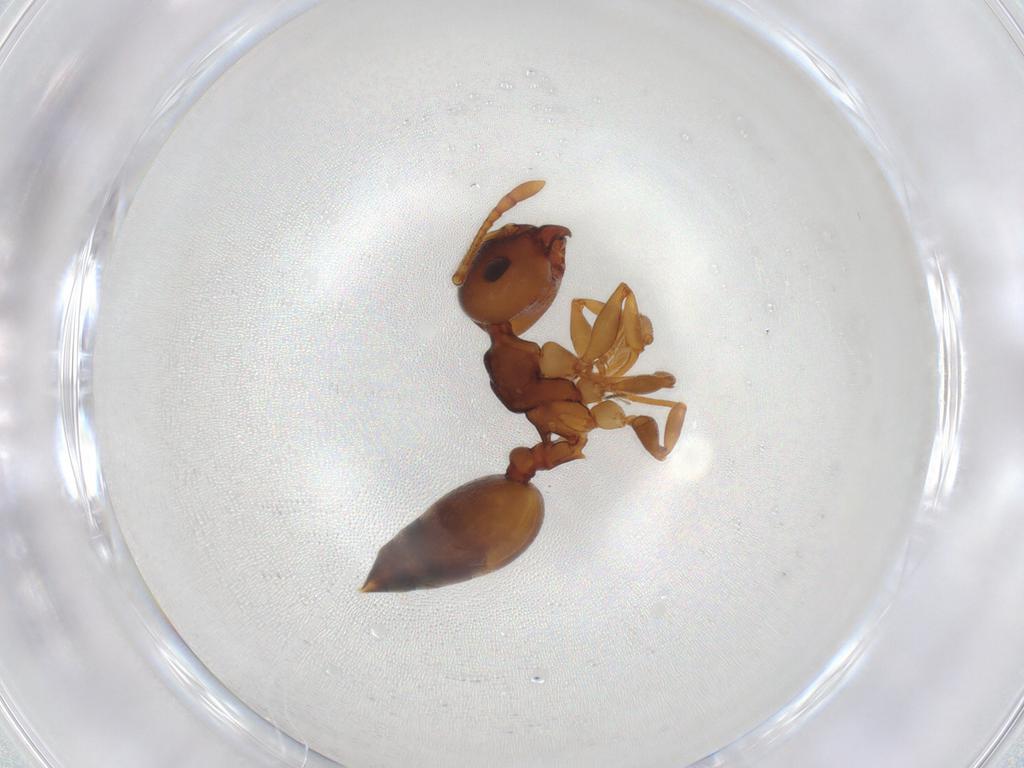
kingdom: Animalia
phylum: Arthropoda
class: Insecta
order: Hymenoptera
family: Formicidae
